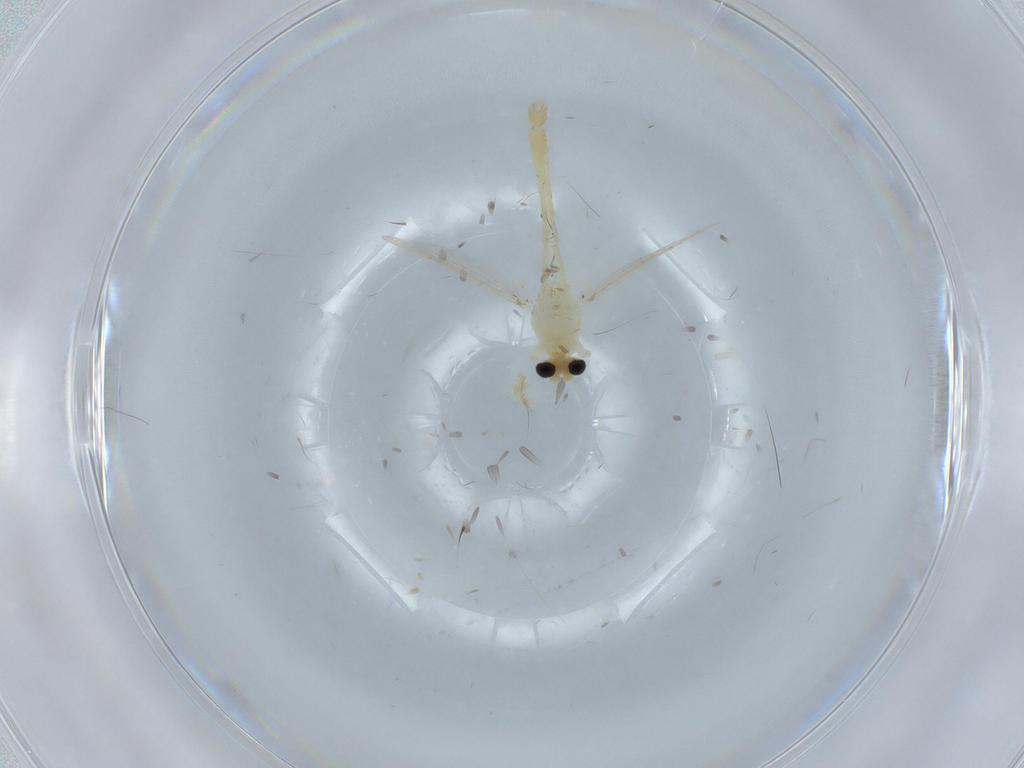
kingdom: Animalia
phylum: Arthropoda
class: Insecta
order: Diptera
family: Chironomidae
